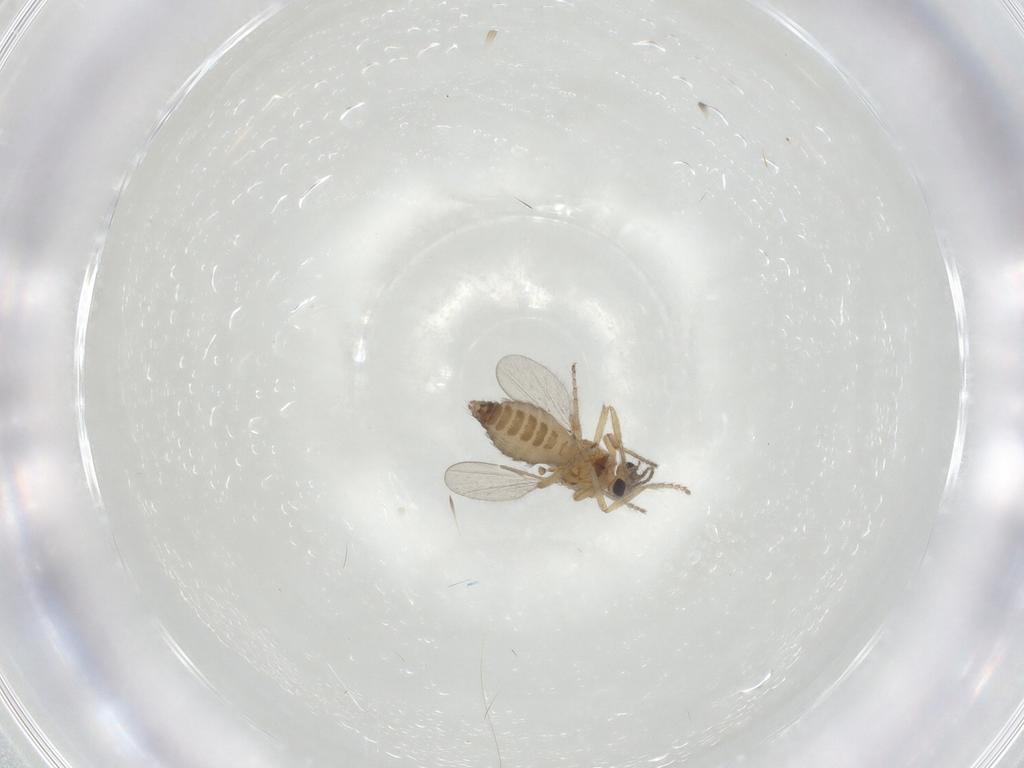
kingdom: Animalia
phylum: Arthropoda
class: Insecta
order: Diptera
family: Ceratopogonidae
